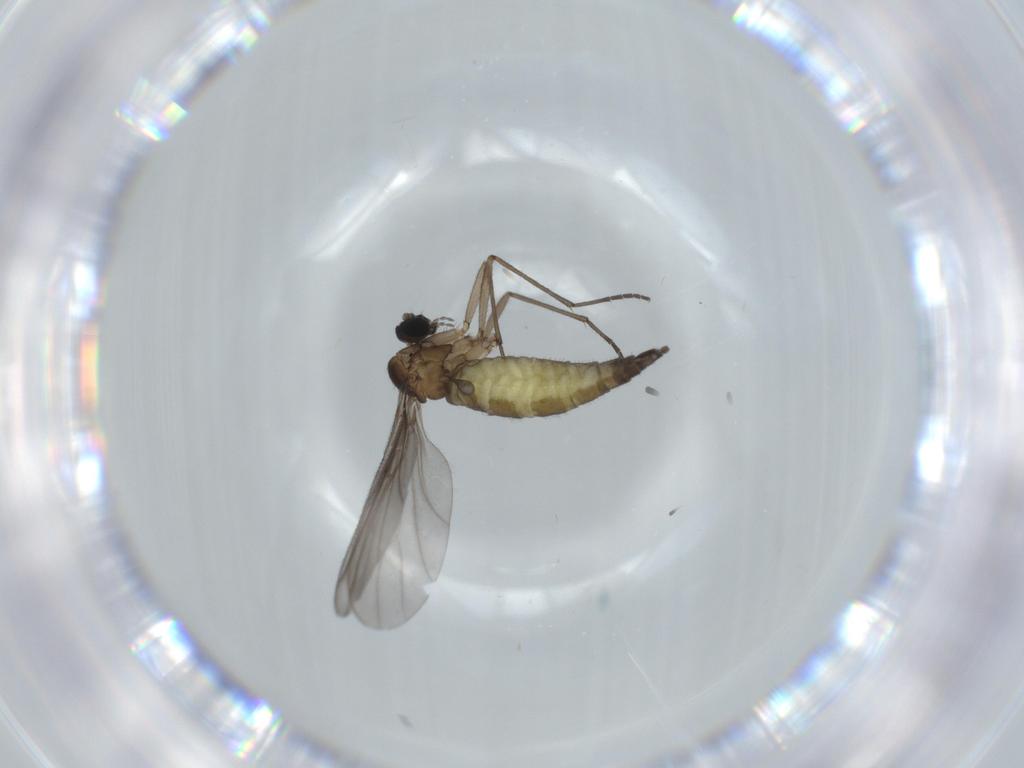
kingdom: Animalia
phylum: Arthropoda
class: Insecta
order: Diptera
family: Sciaridae
